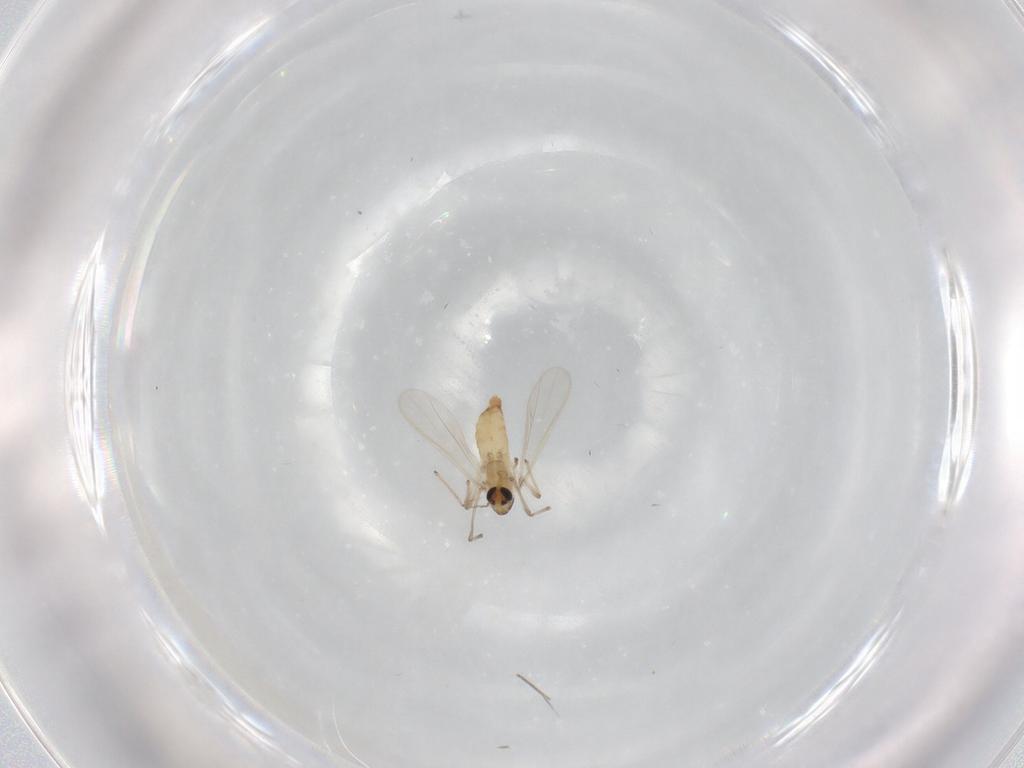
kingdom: Animalia
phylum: Arthropoda
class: Insecta
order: Diptera
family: Chironomidae
